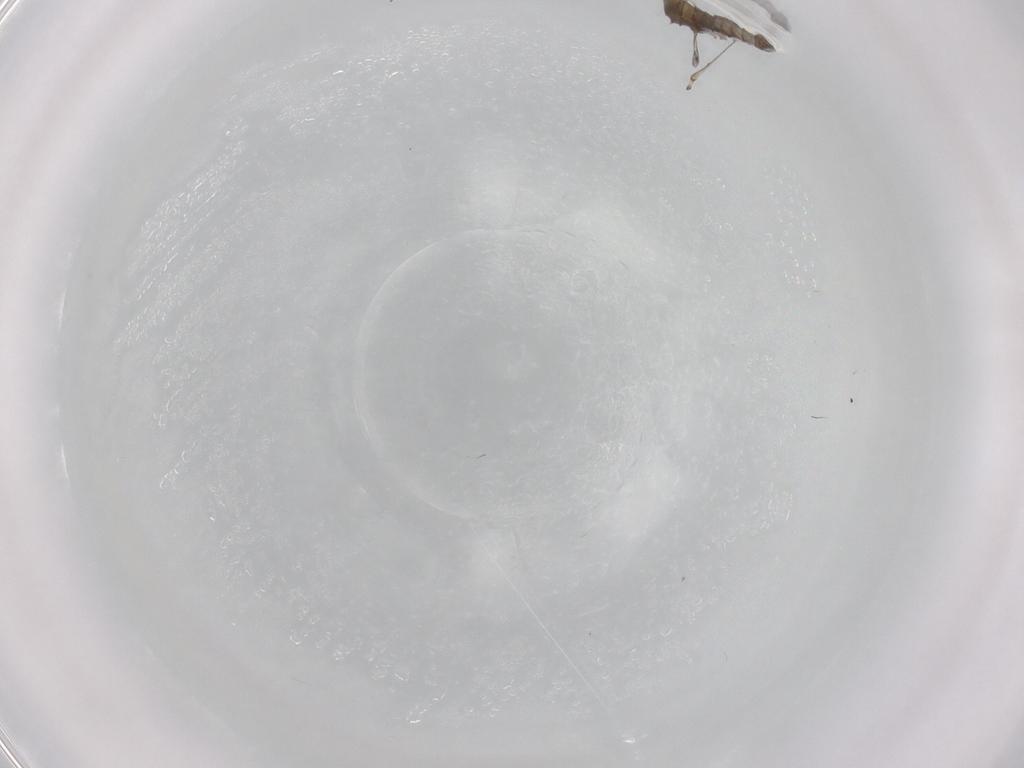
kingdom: Animalia
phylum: Arthropoda
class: Insecta
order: Diptera
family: Cecidomyiidae
